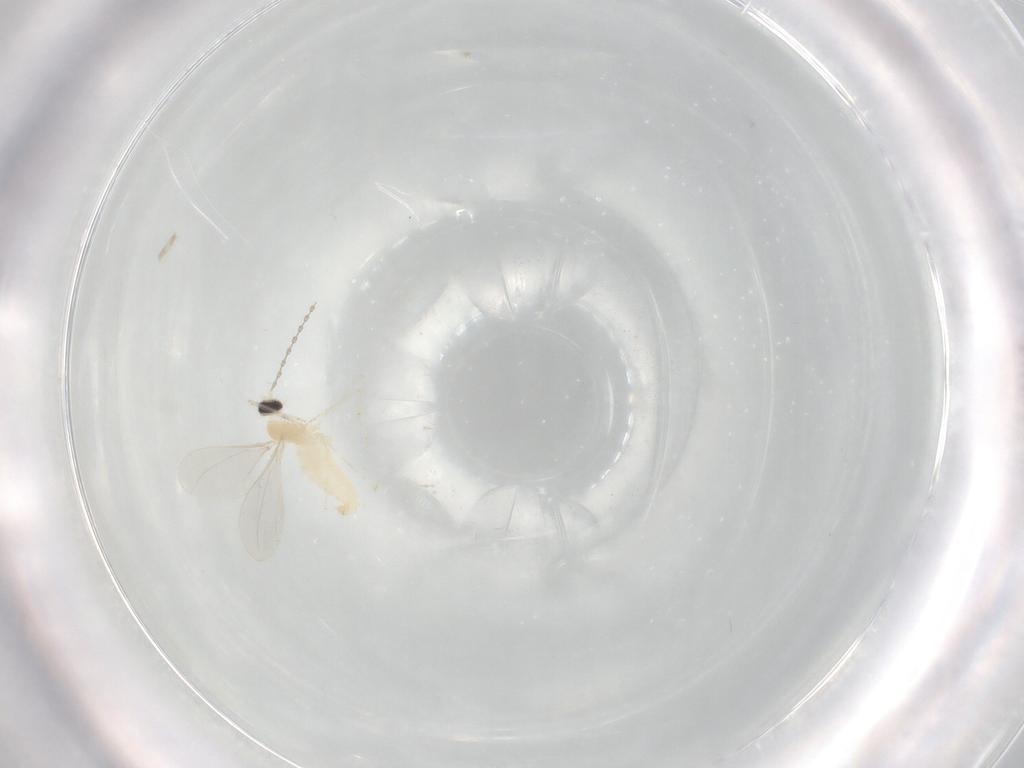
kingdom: Animalia
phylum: Arthropoda
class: Insecta
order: Diptera
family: Cecidomyiidae
